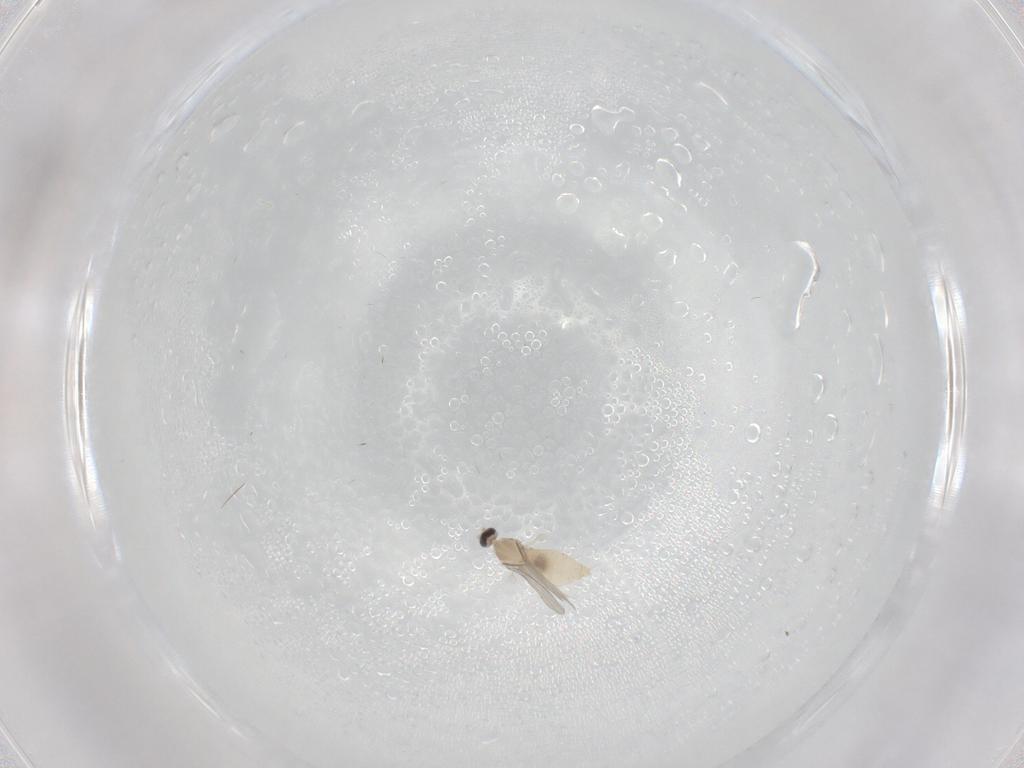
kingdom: Animalia
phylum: Arthropoda
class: Insecta
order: Diptera
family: Cecidomyiidae
